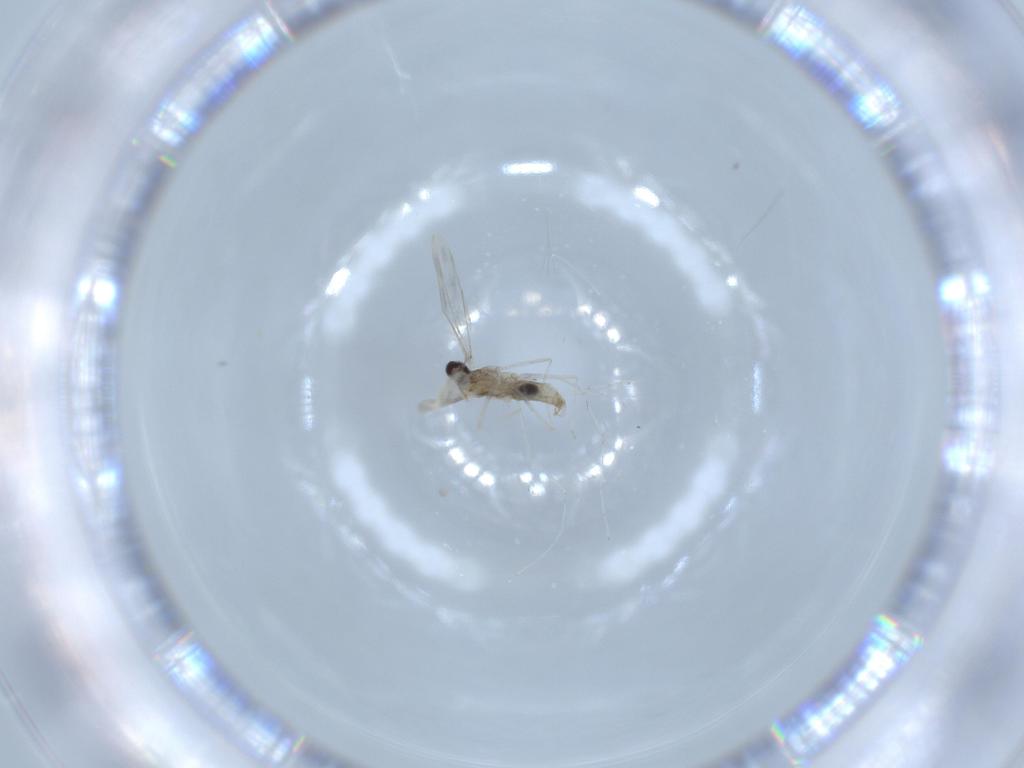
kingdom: Animalia
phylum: Arthropoda
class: Insecta
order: Diptera
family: Cecidomyiidae
